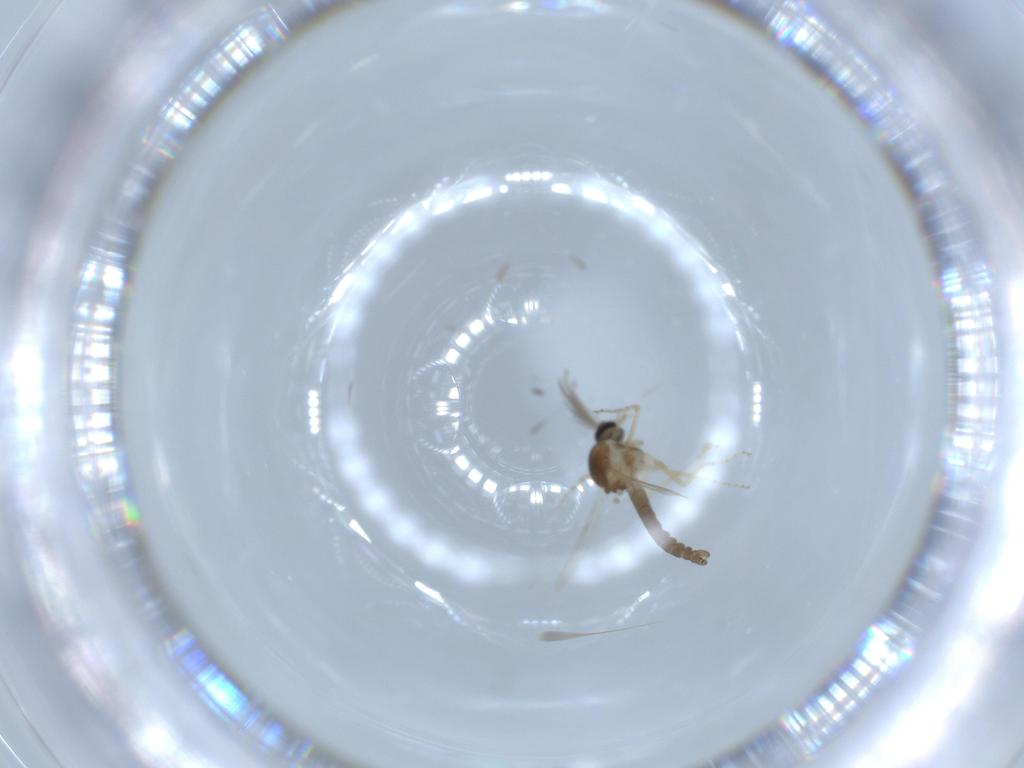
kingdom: Animalia
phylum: Arthropoda
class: Insecta
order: Diptera
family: Ceratopogonidae
